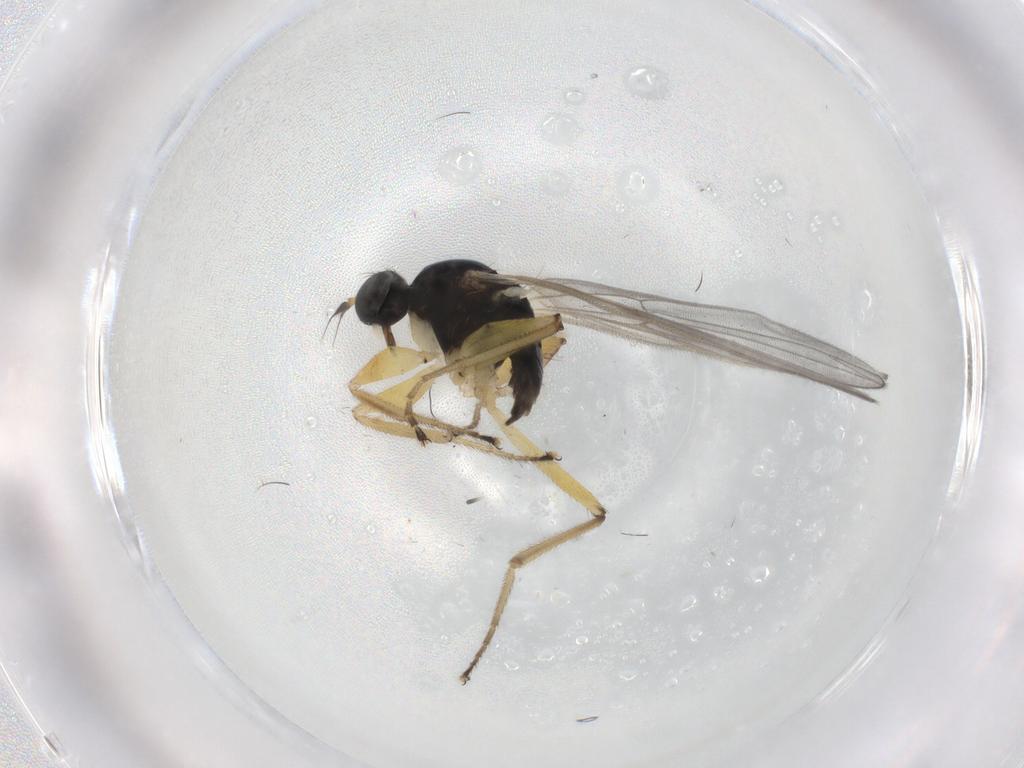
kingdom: Animalia
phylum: Arthropoda
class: Insecta
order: Diptera
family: Hybotidae
